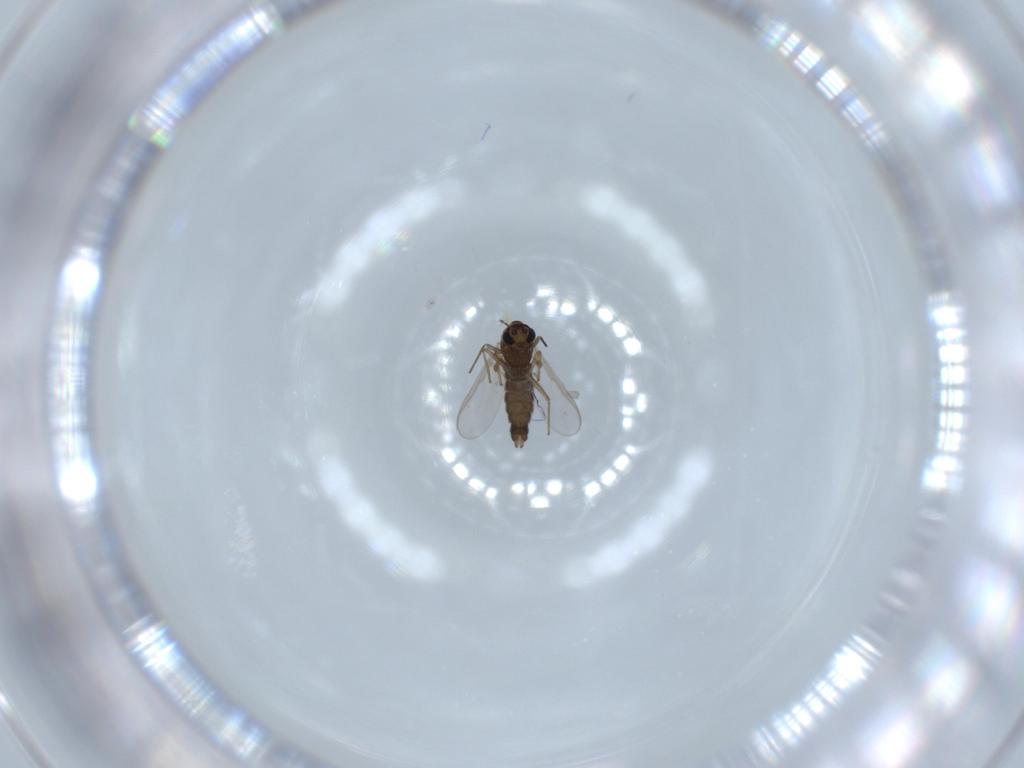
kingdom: Animalia
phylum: Arthropoda
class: Insecta
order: Diptera
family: Chironomidae
